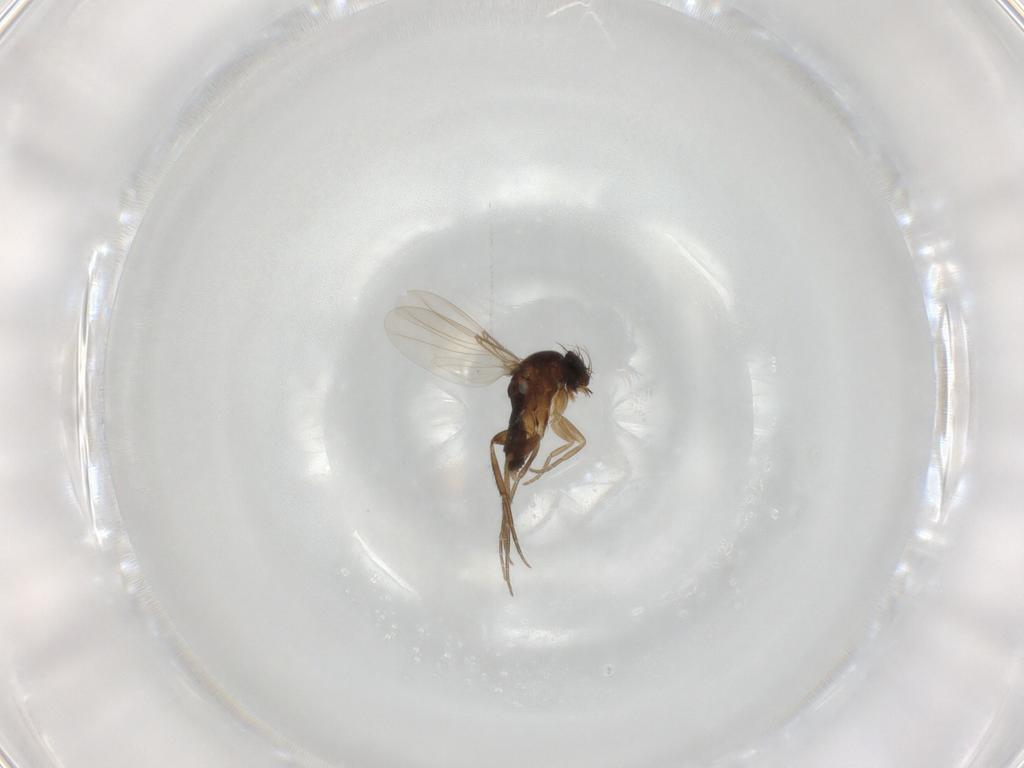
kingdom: Animalia
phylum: Arthropoda
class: Insecta
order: Diptera
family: Phoridae
